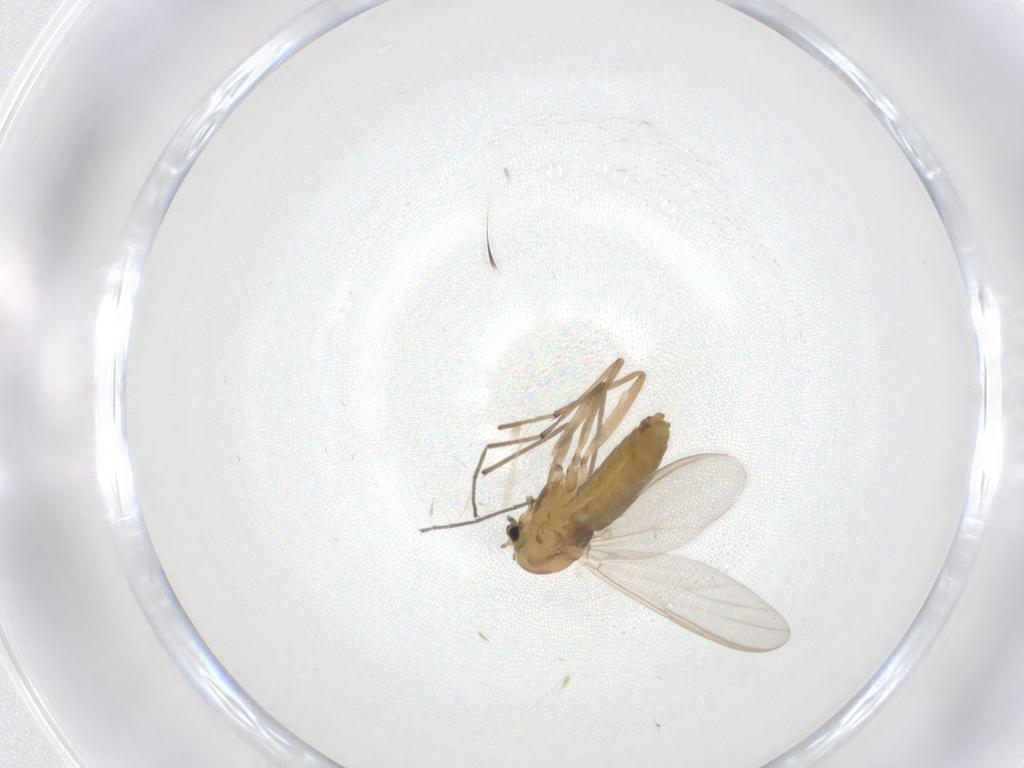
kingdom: Animalia
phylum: Arthropoda
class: Insecta
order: Diptera
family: Chironomidae
